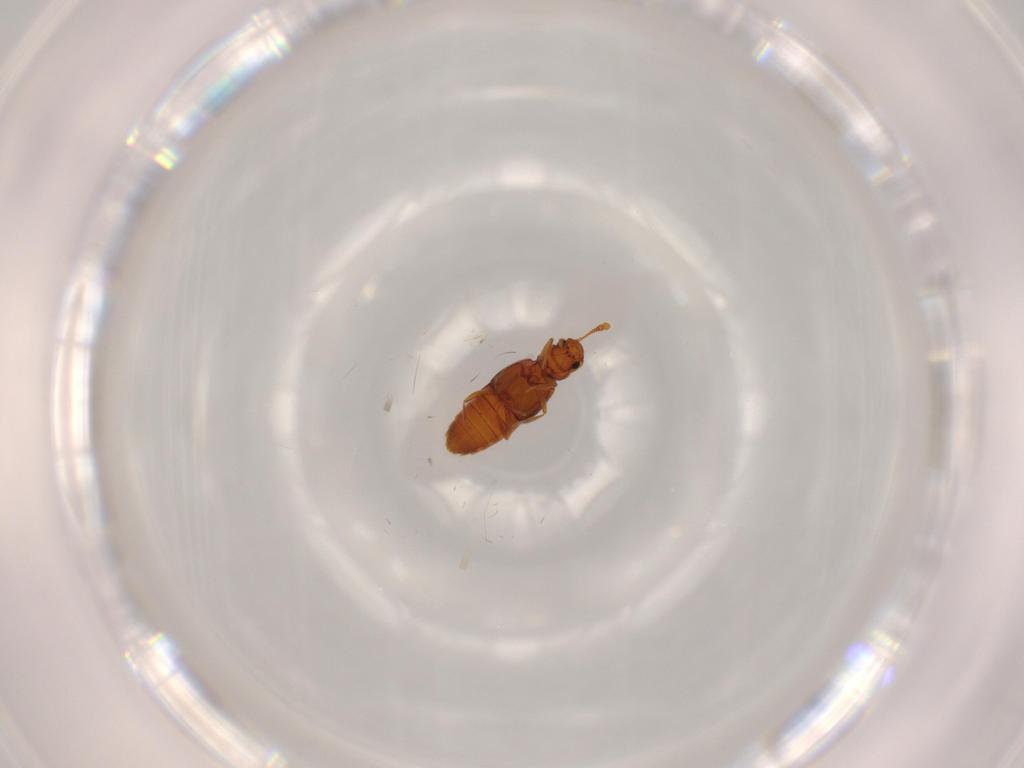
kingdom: Animalia
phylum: Arthropoda
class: Insecta
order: Coleoptera
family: Staphylinidae
